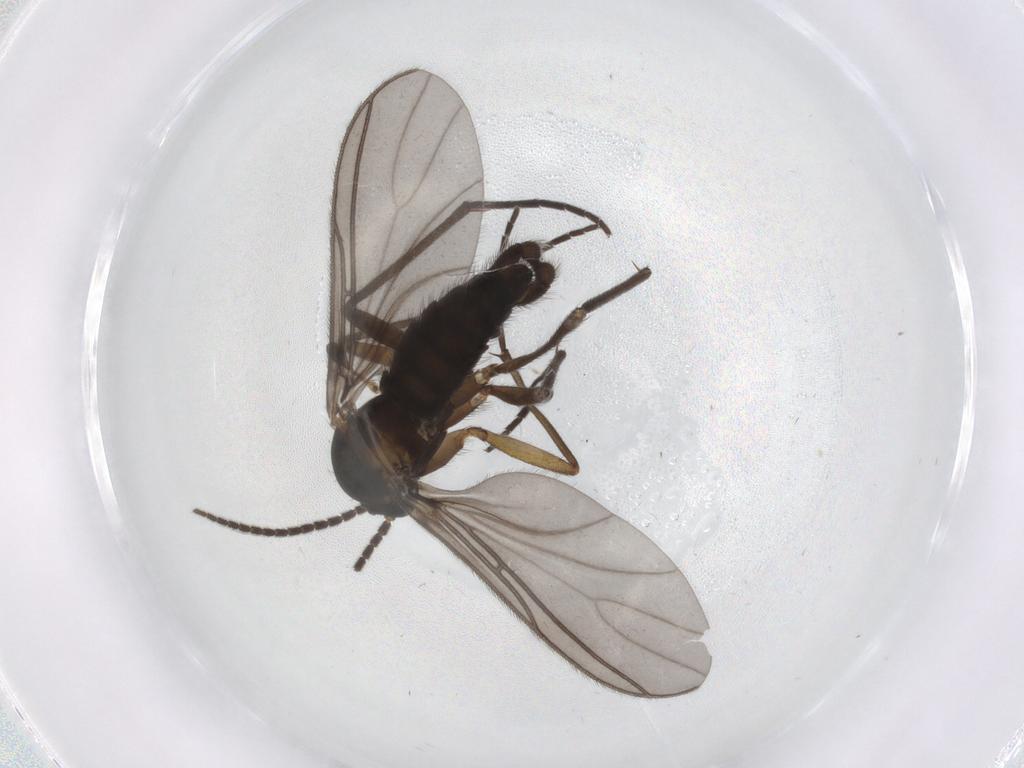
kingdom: Animalia
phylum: Arthropoda
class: Insecta
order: Diptera
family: Sciaridae
